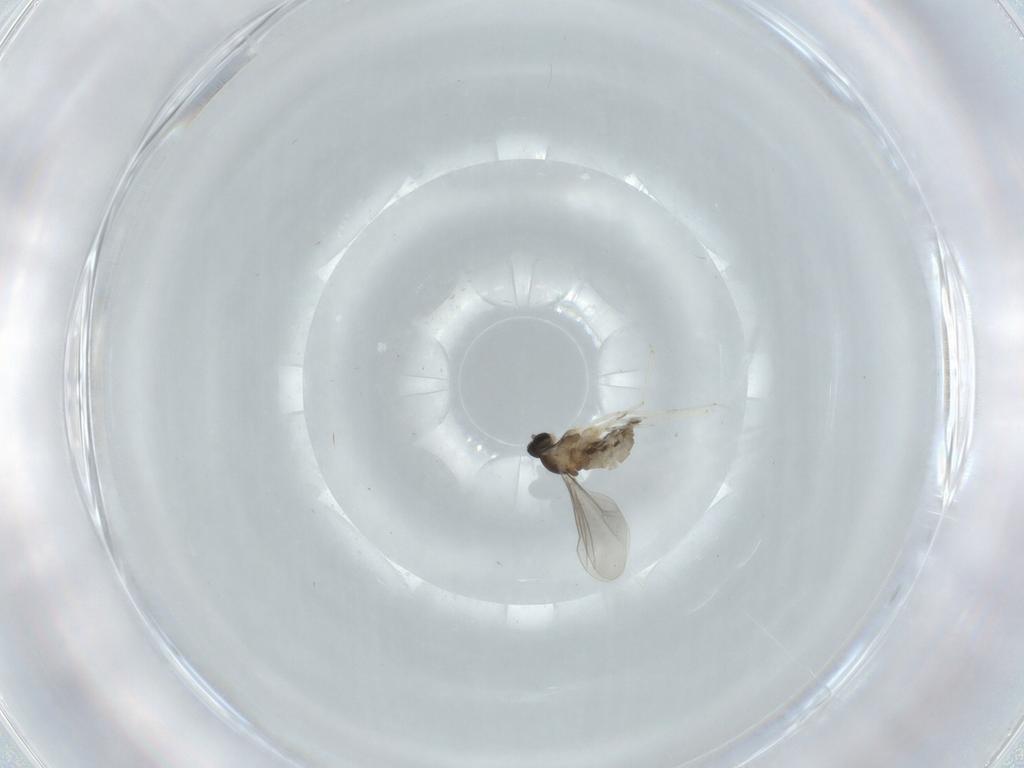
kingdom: Animalia
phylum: Arthropoda
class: Insecta
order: Diptera
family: Cecidomyiidae
